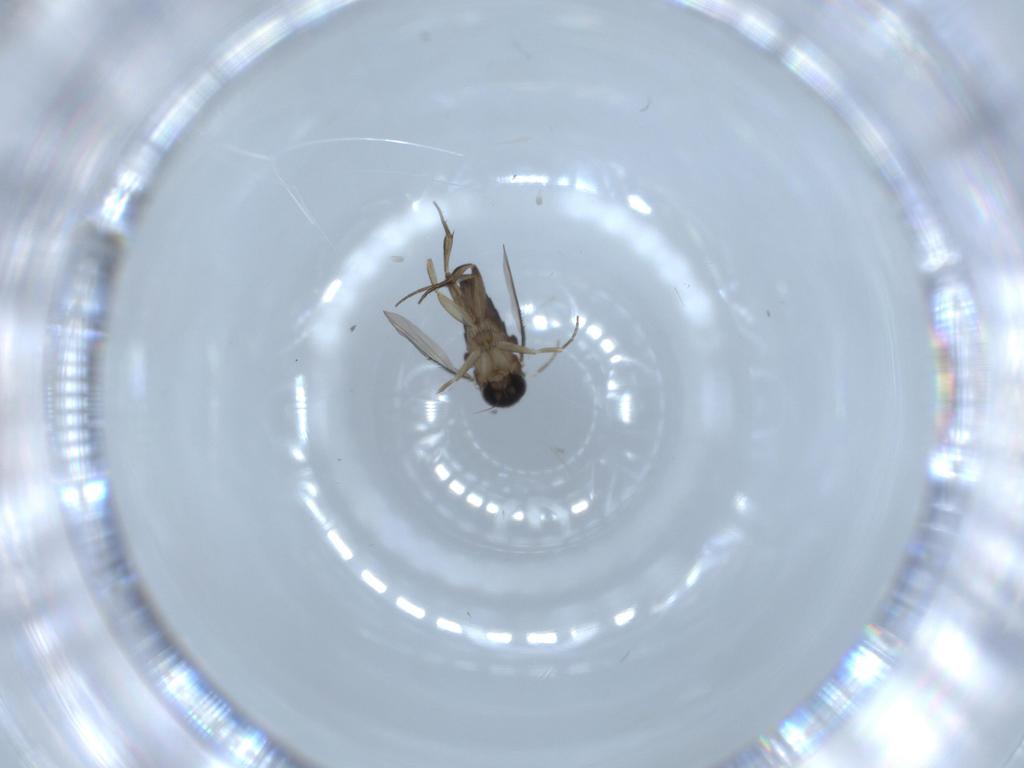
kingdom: Animalia
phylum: Arthropoda
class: Insecta
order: Diptera
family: Phoridae
